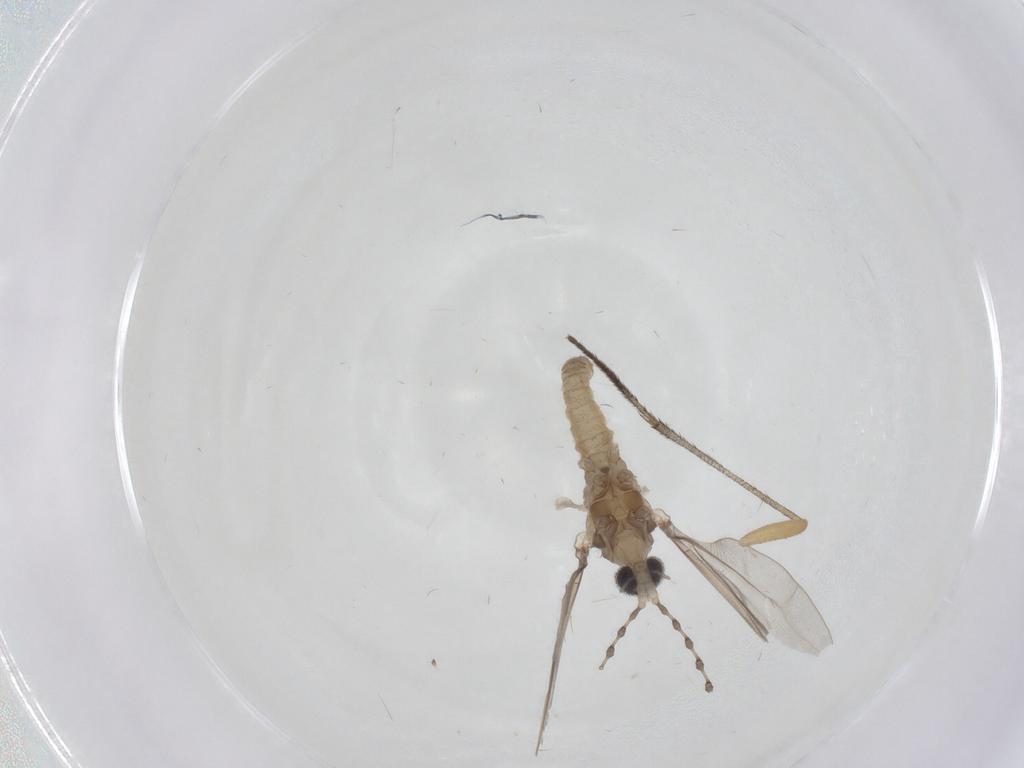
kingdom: Animalia
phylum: Arthropoda
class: Insecta
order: Diptera
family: Sciaridae
